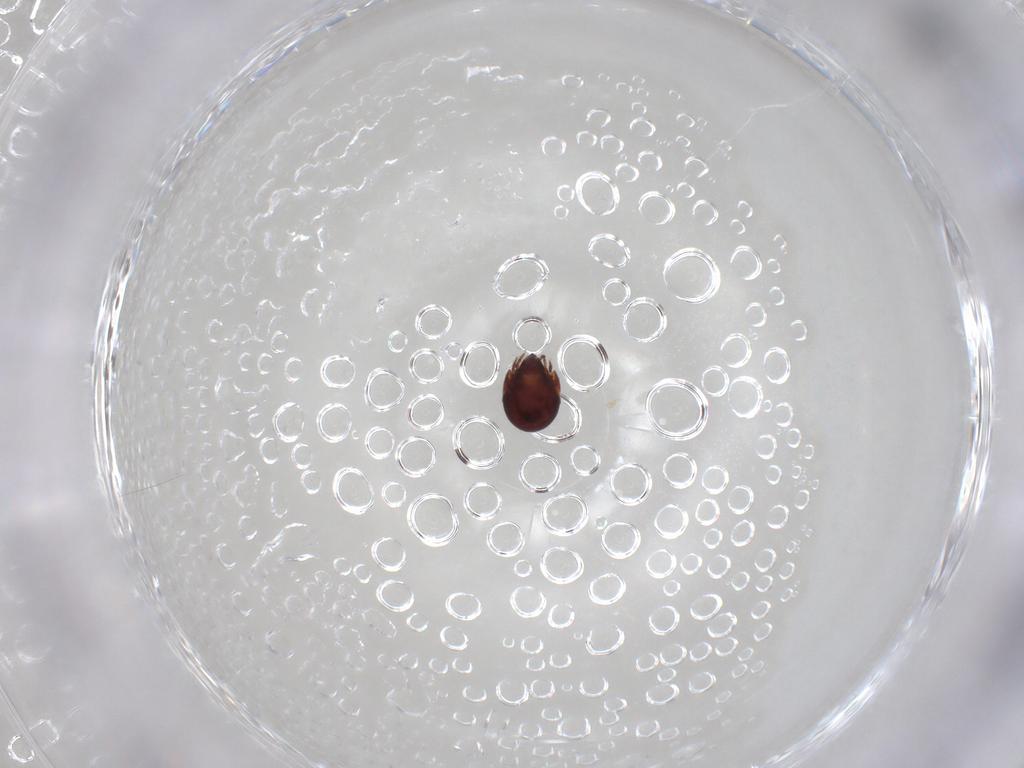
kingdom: Animalia
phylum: Arthropoda
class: Arachnida
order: Sarcoptiformes
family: Humerobatidae
